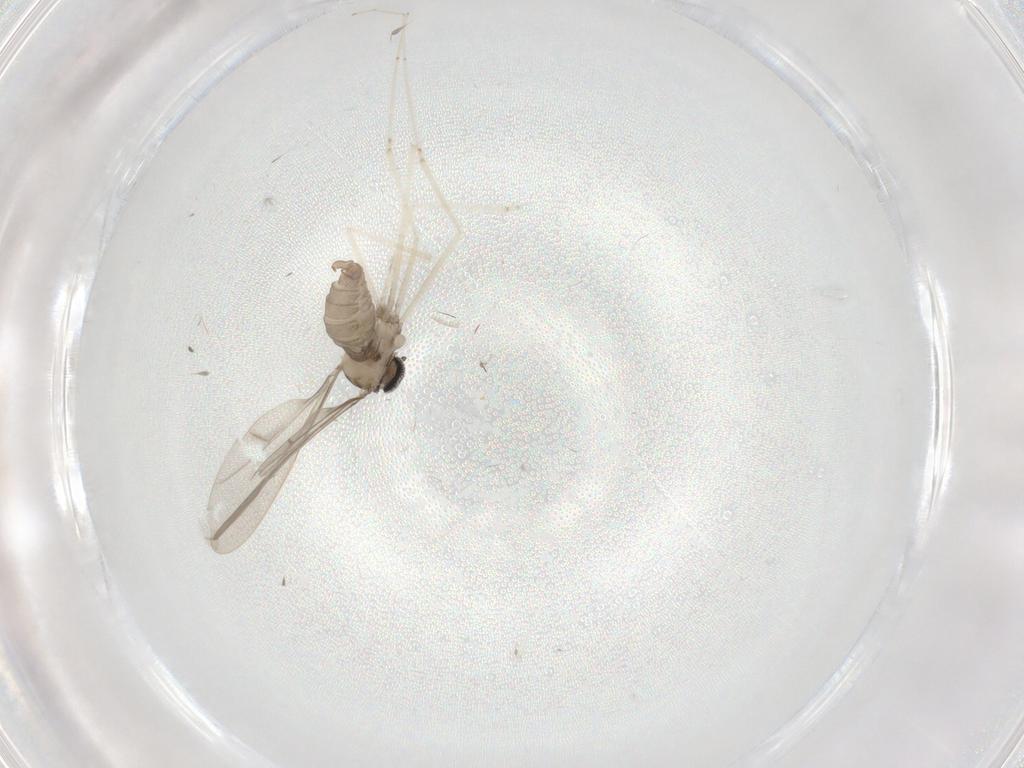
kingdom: Animalia
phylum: Arthropoda
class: Insecta
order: Diptera
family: Cecidomyiidae
